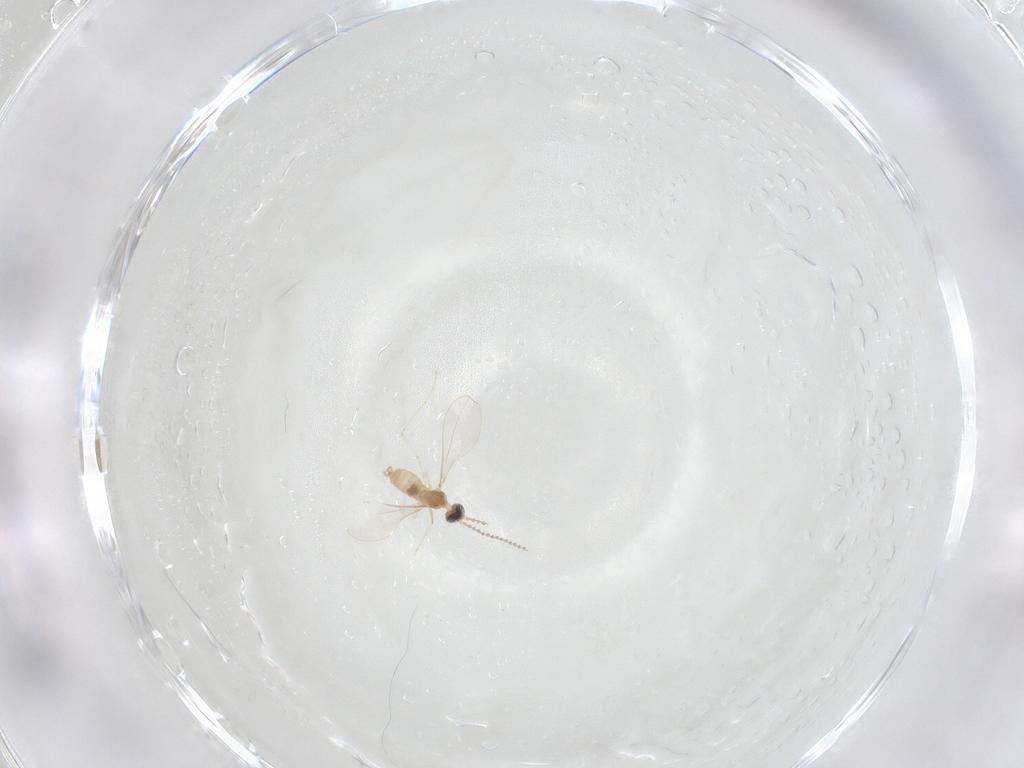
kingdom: Animalia
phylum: Arthropoda
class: Insecta
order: Diptera
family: Cecidomyiidae
